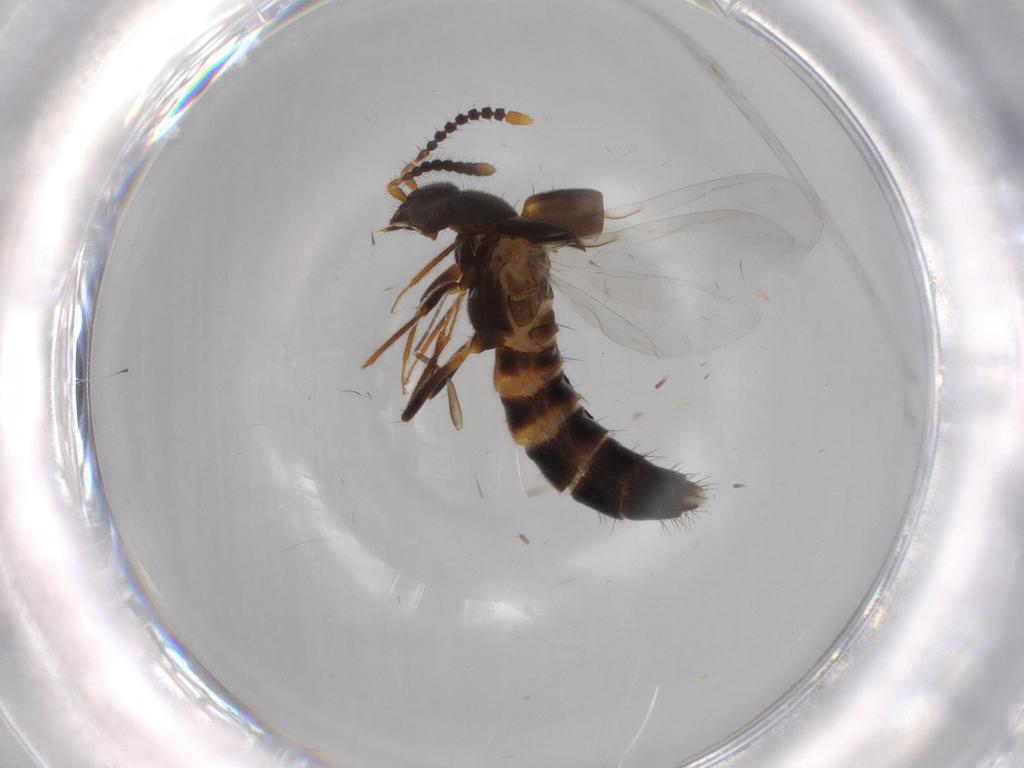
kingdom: Animalia
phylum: Arthropoda
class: Insecta
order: Coleoptera
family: Staphylinidae
